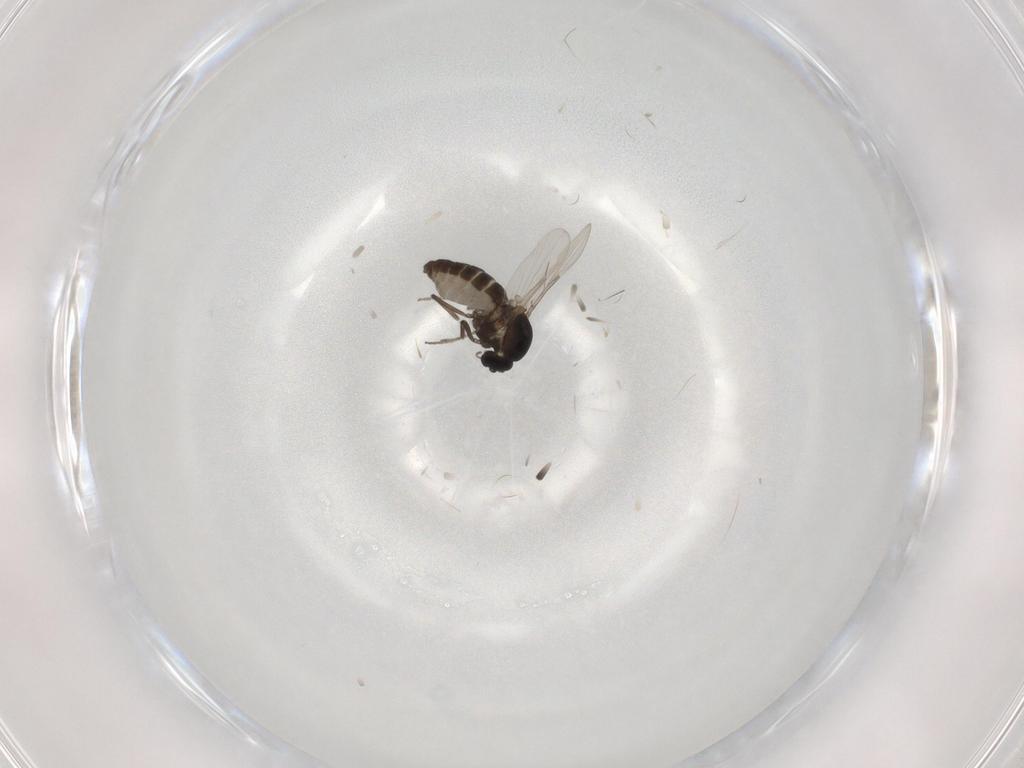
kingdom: Animalia
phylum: Arthropoda
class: Insecta
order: Diptera
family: Ceratopogonidae
